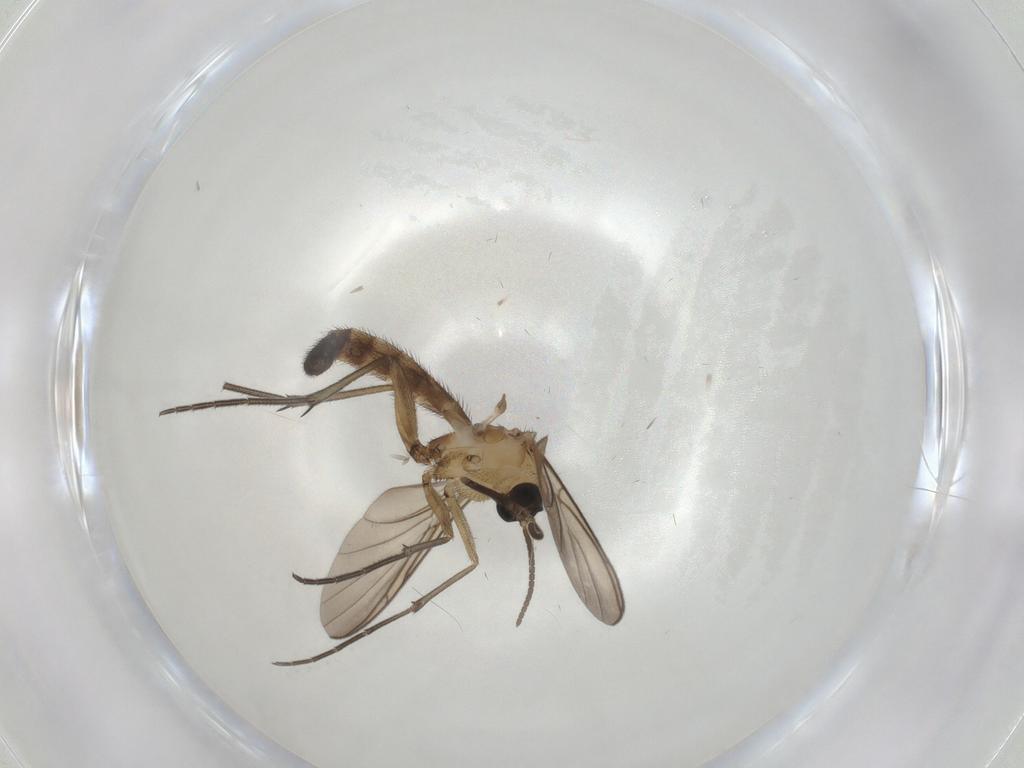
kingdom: Animalia
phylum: Arthropoda
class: Insecta
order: Diptera
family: Keroplatidae
